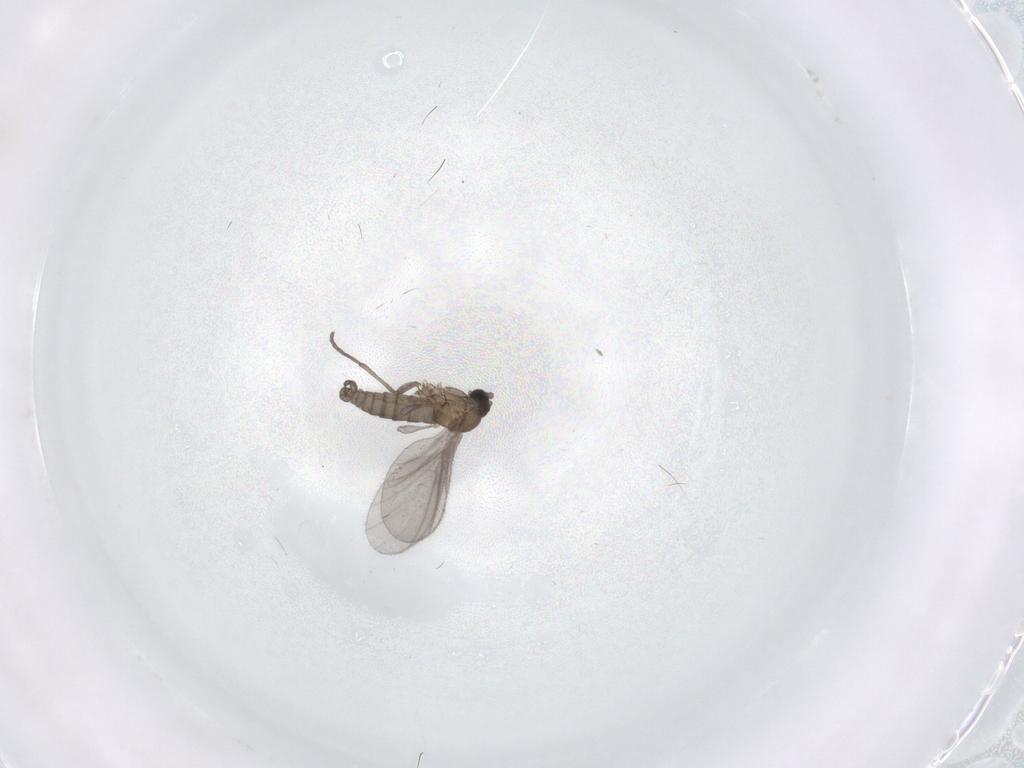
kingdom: Animalia
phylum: Arthropoda
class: Insecta
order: Diptera
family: Sciaridae
